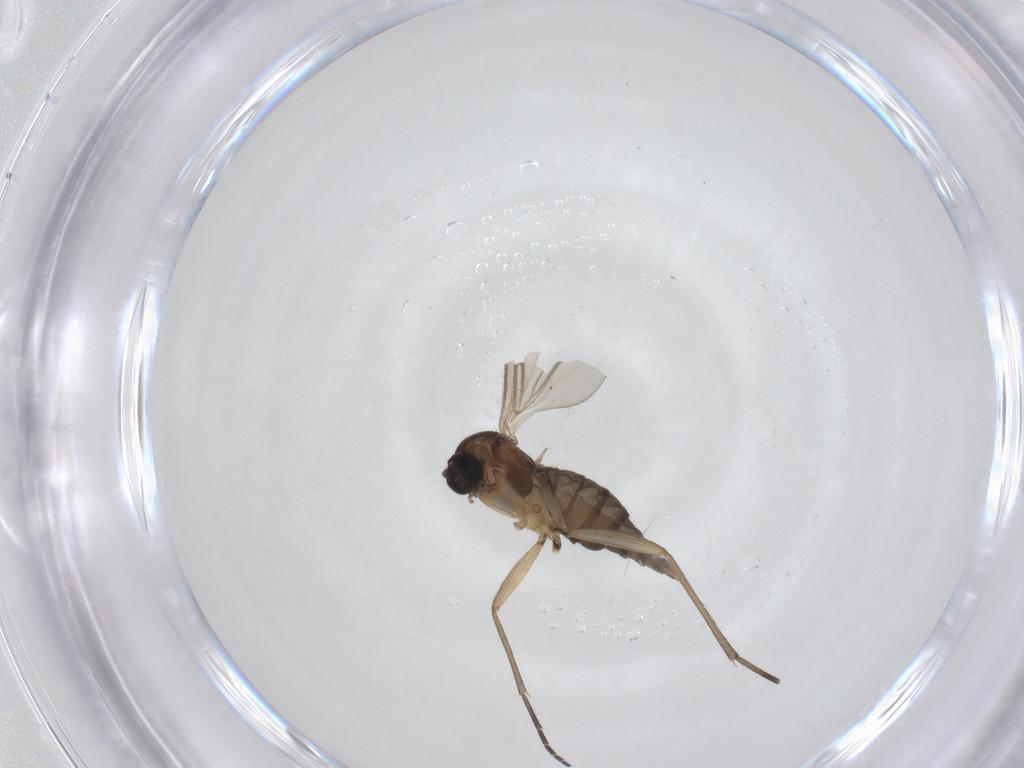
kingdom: Animalia
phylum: Arthropoda
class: Insecta
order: Diptera
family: Sciaridae
